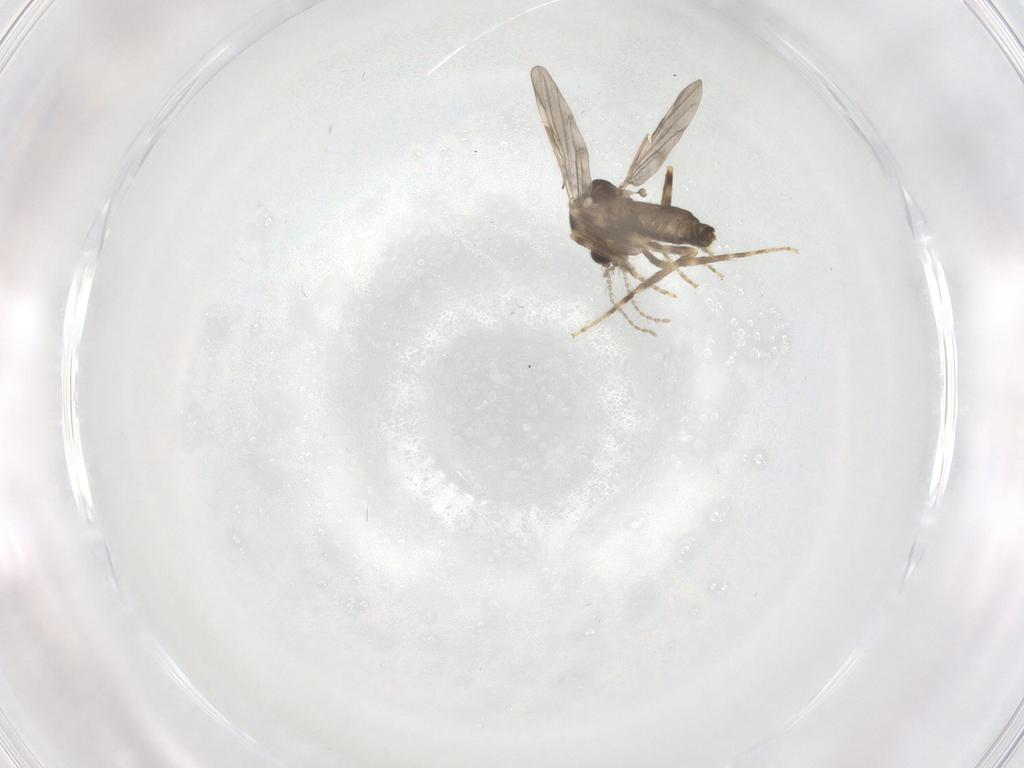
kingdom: Animalia
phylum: Arthropoda
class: Insecta
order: Diptera
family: Ceratopogonidae
